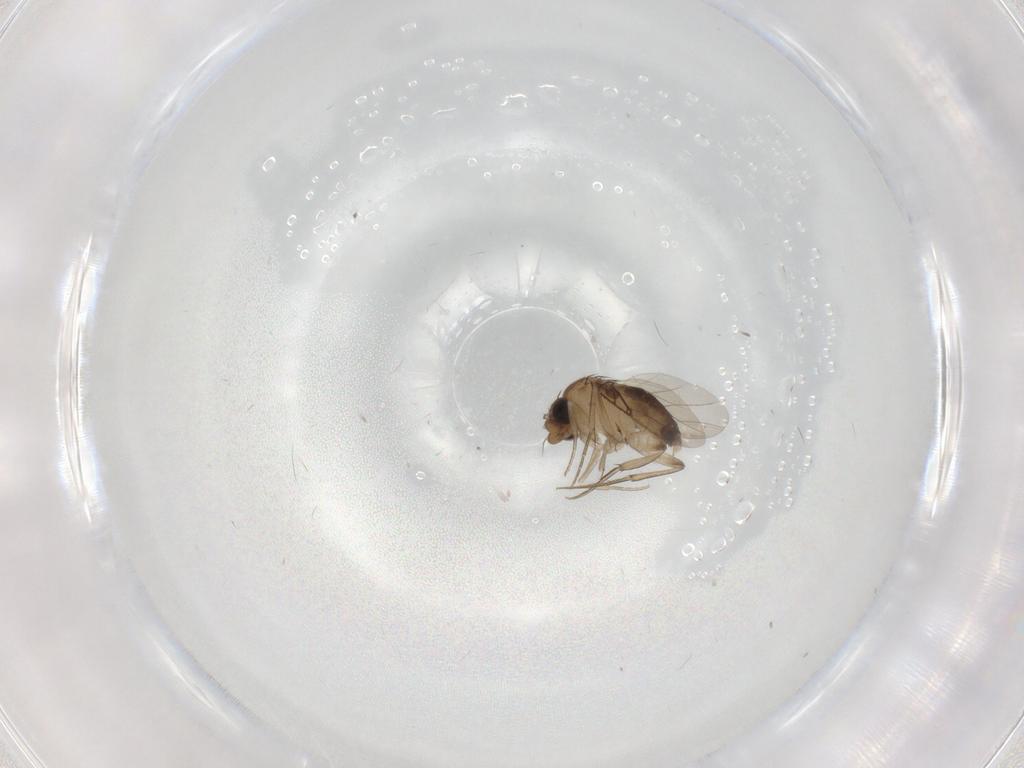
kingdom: Animalia
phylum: Arthropoda
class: Insecta
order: Diptera
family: Phoridae
